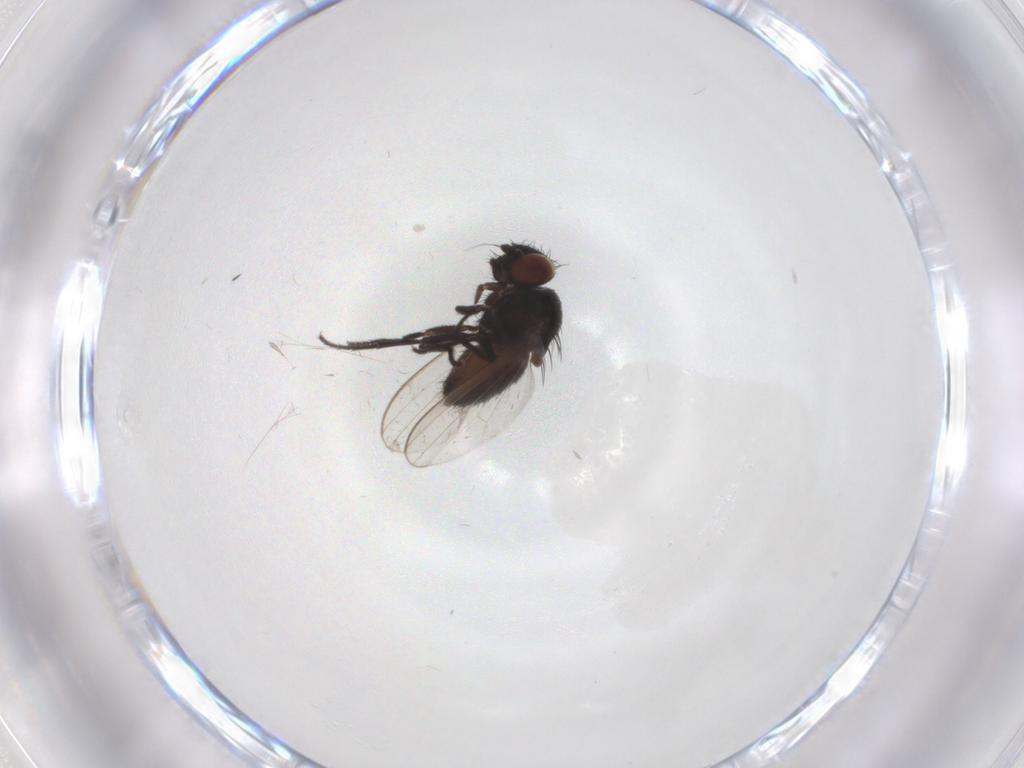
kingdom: Animalia
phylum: Arthropoda
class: Insecta
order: Diptera
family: Milichiidae
